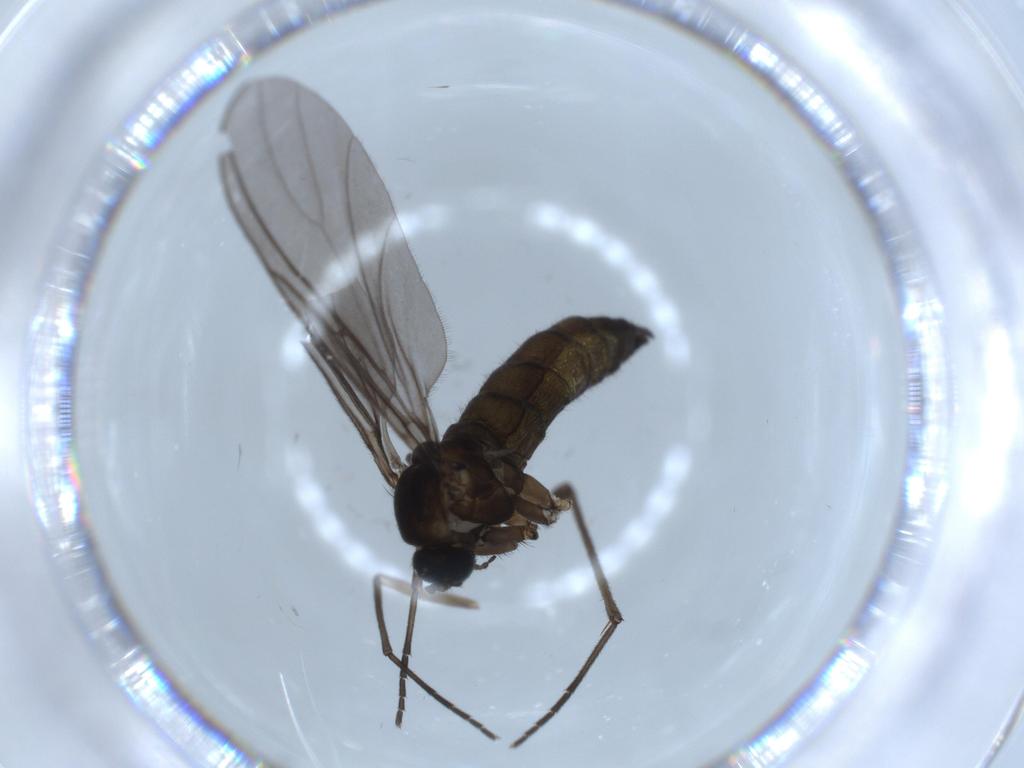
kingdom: Animalia
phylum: Arthropoda
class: Insecta
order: Diptera
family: Sciaridae
